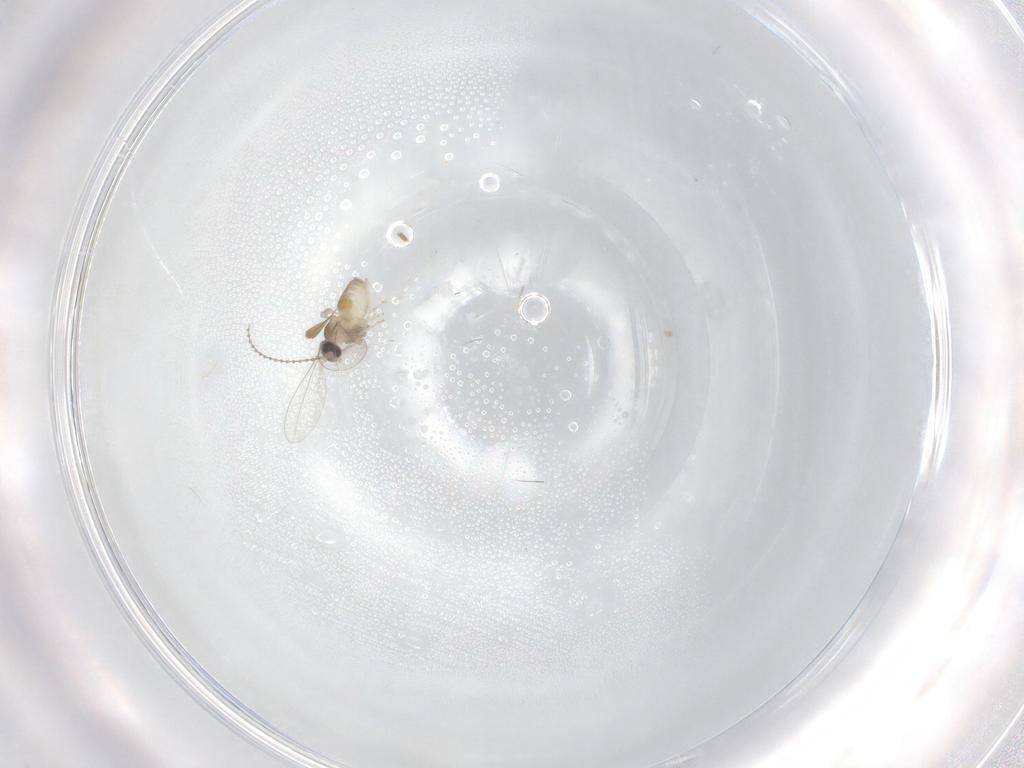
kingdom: Animalia
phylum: Arthropoda
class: Insecta
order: Diptera
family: Cecidomyiidae
